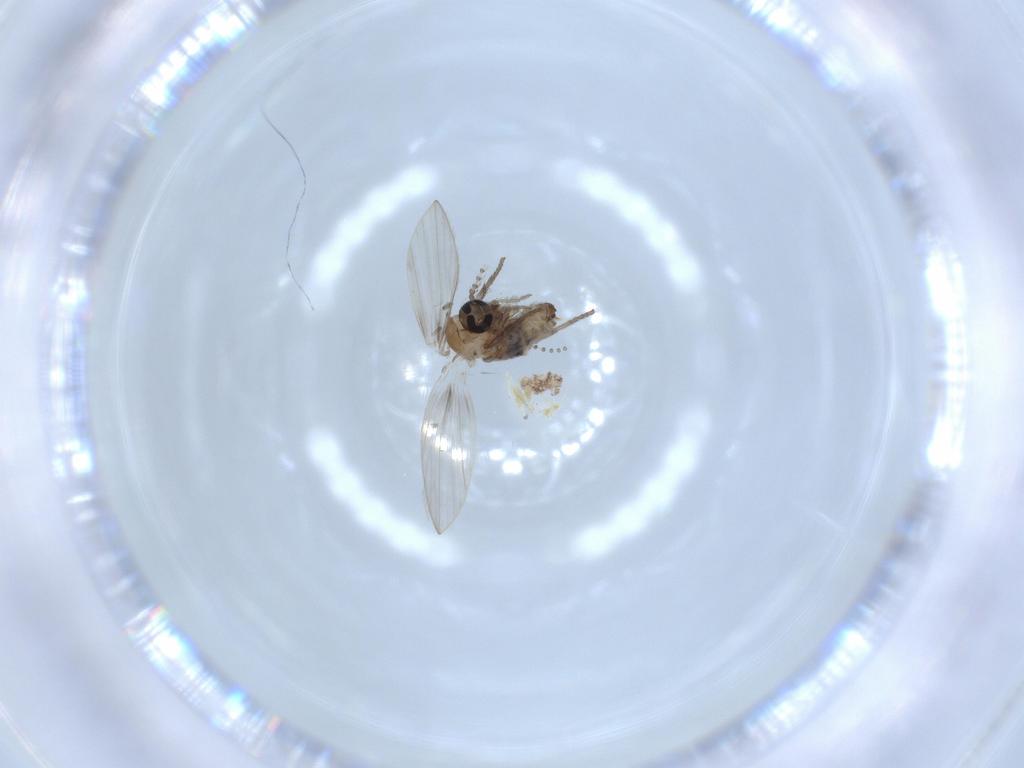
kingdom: Animalia
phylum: Arthropoda
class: Insecta
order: Diptera
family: Psychodidae
